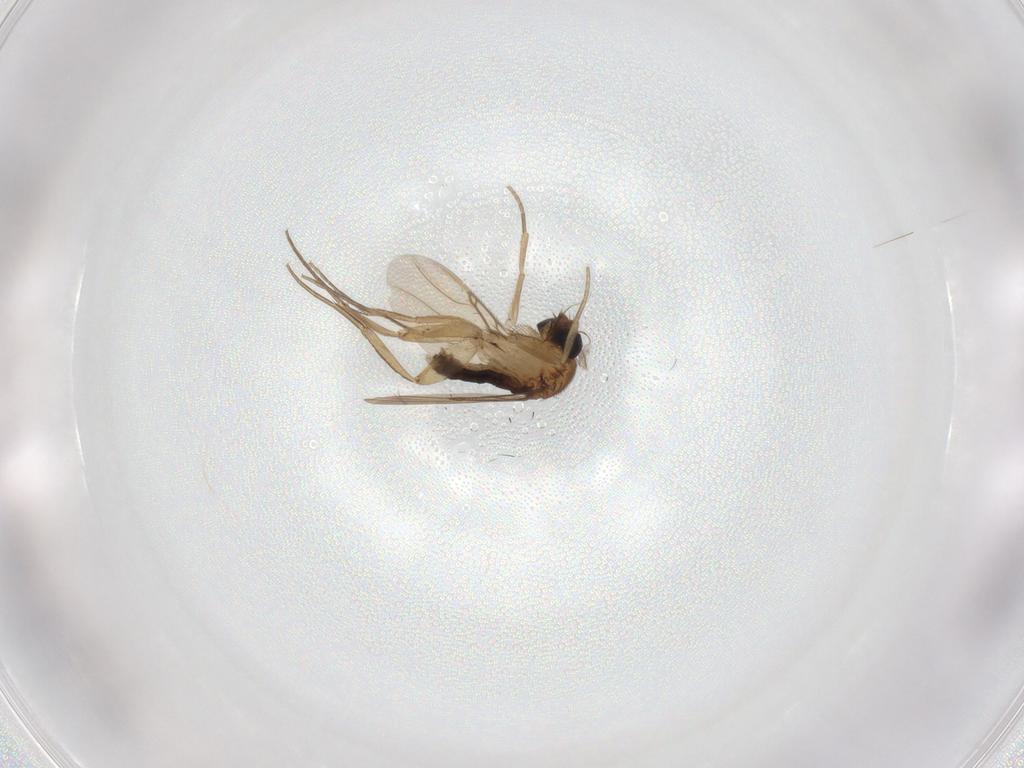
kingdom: Animalia
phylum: Arthropoda
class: Insecta
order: Diptera
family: Phoridae
